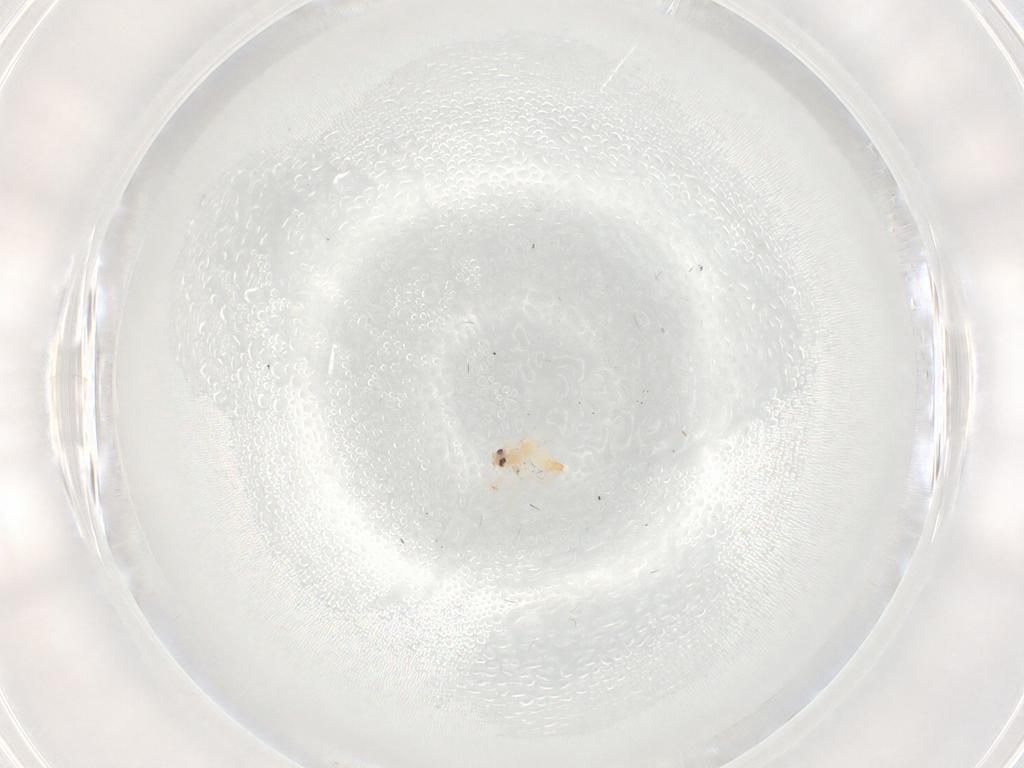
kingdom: Animalia
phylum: Arthropoda
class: Insecta
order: Hemiptera
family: Aleyrodidae
